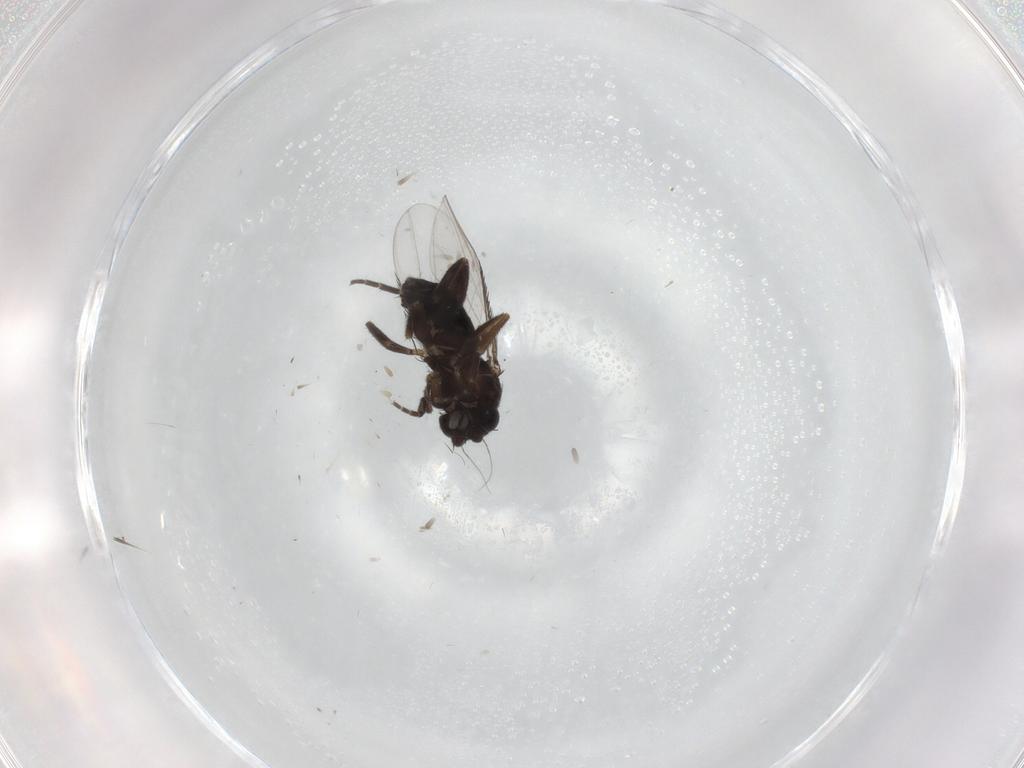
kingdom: Animalia
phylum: Arthropoda
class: Insecta
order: Diptera
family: Phoridae
